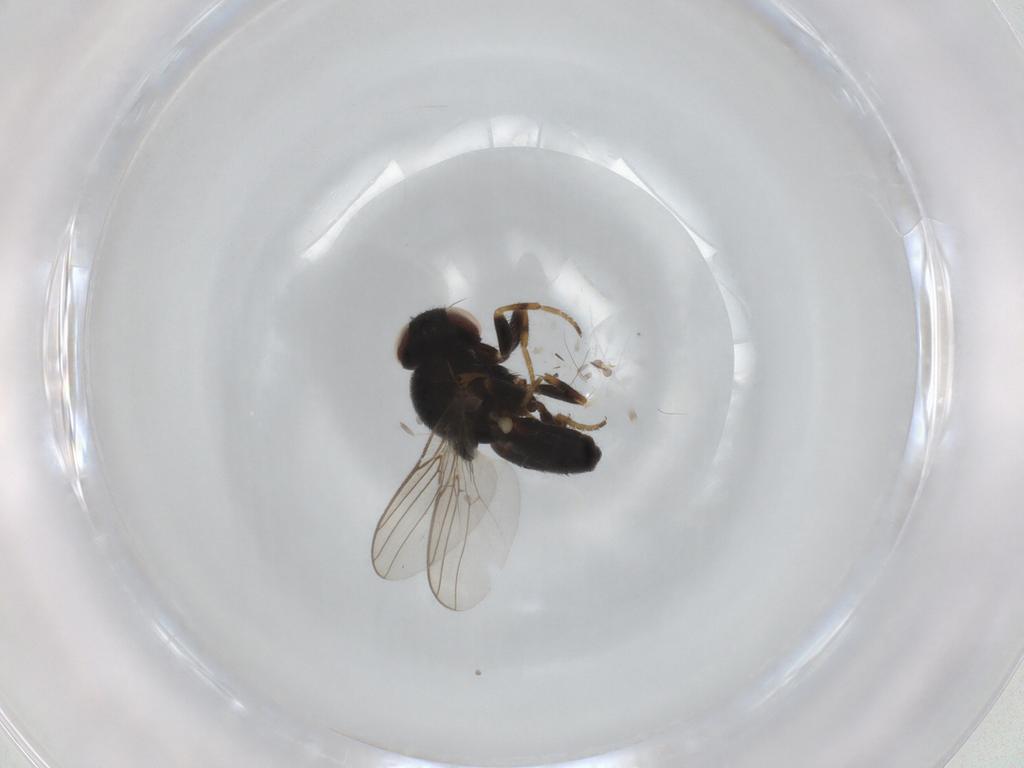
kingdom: Animalia
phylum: Arthropoda
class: Insecta
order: Diptera
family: Chloropidae
